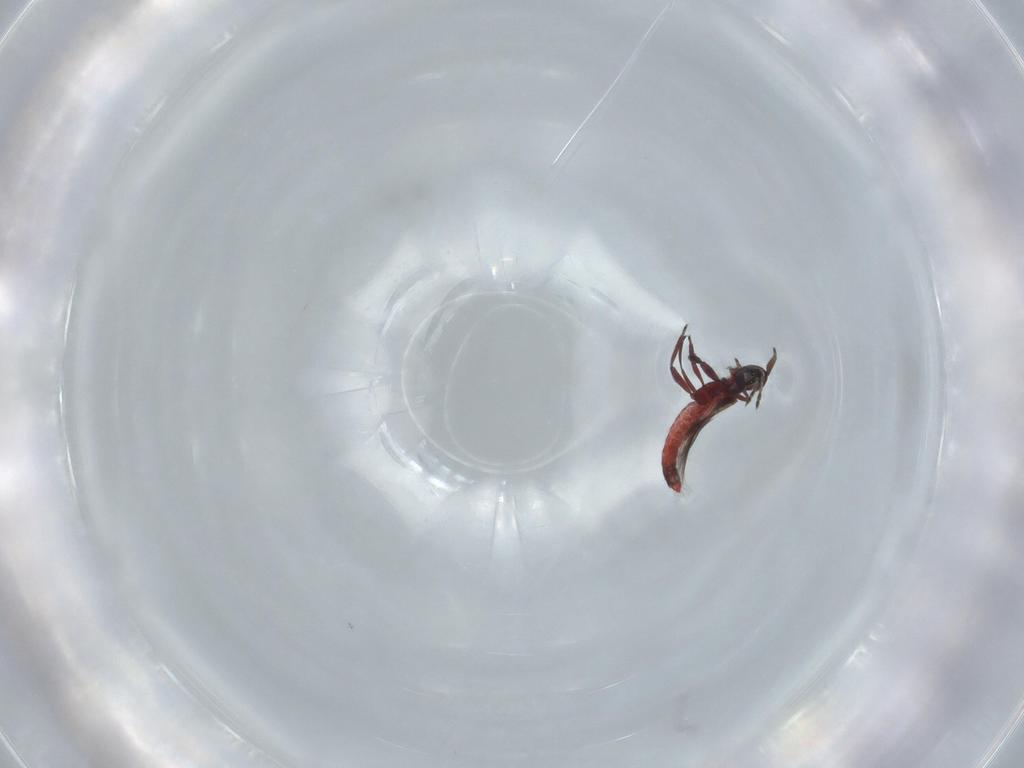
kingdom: Animalia
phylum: Arthropoda
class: Insecta
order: Thysanoptera
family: Aeolothripidae
